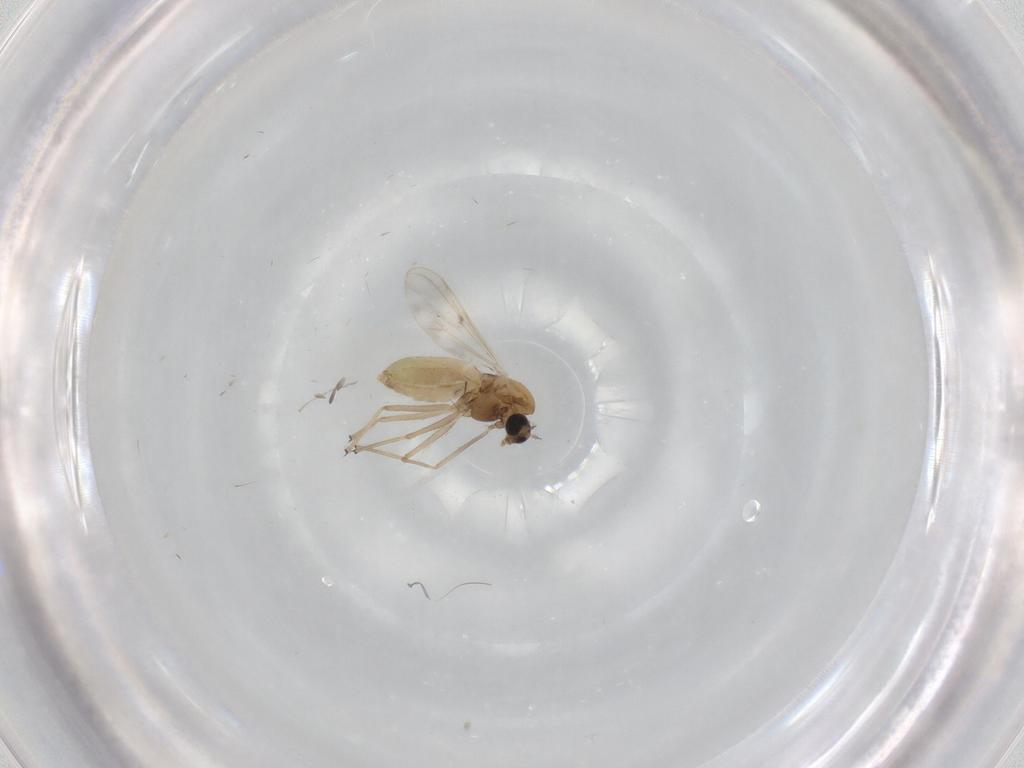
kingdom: Animalia
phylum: Arthropoda
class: Insecta
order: Diptera
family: Chironomidae
